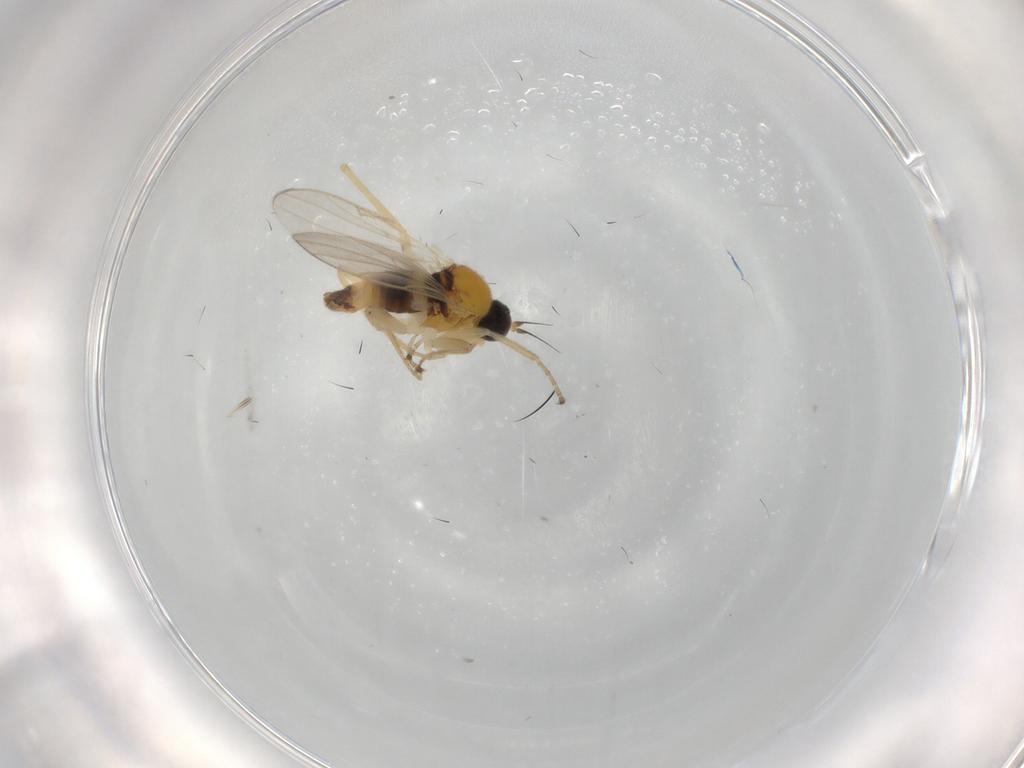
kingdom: Animalia
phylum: Arthropoda
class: Insecta
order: Diptera
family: Hybotidae
